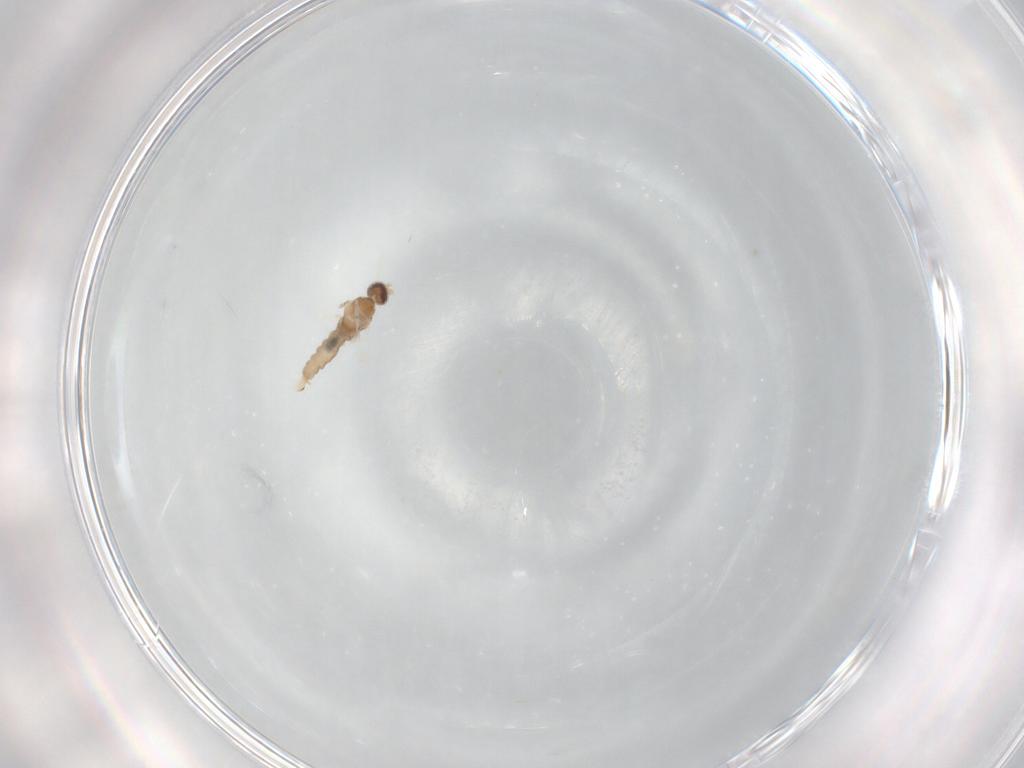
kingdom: Animalia
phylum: Arthropoda
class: Insecta
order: Diptera
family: Cecidomyiidae
